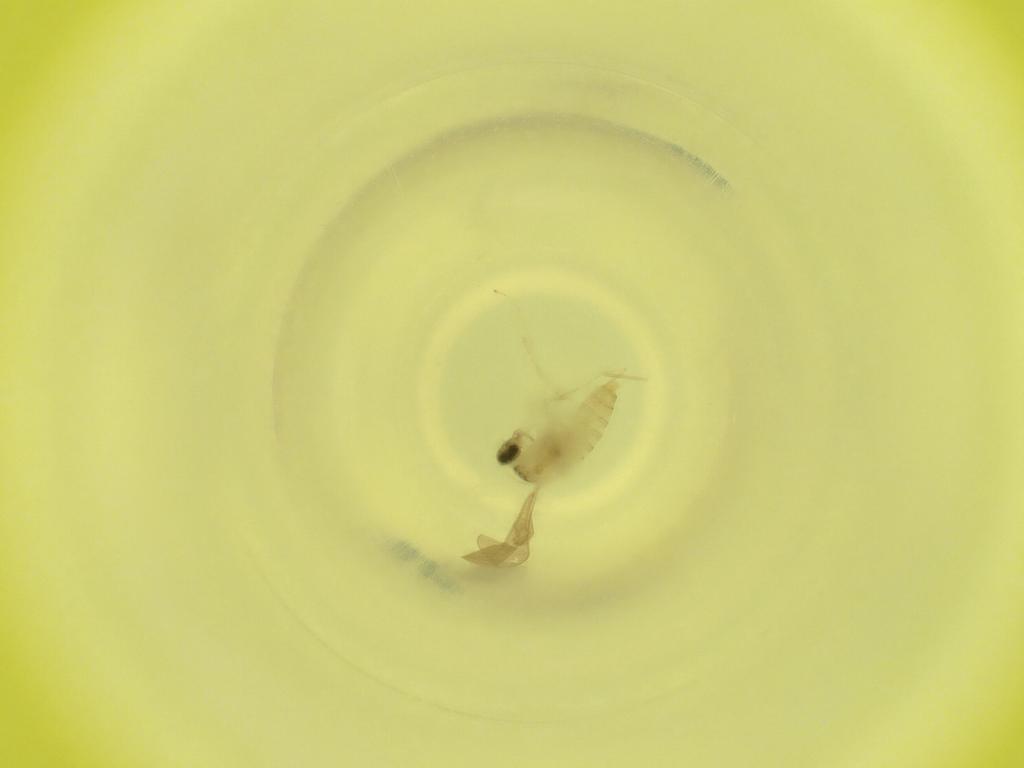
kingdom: Animalia
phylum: Arthropoda
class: Insecta
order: Diptera
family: Cecidomyiidae
